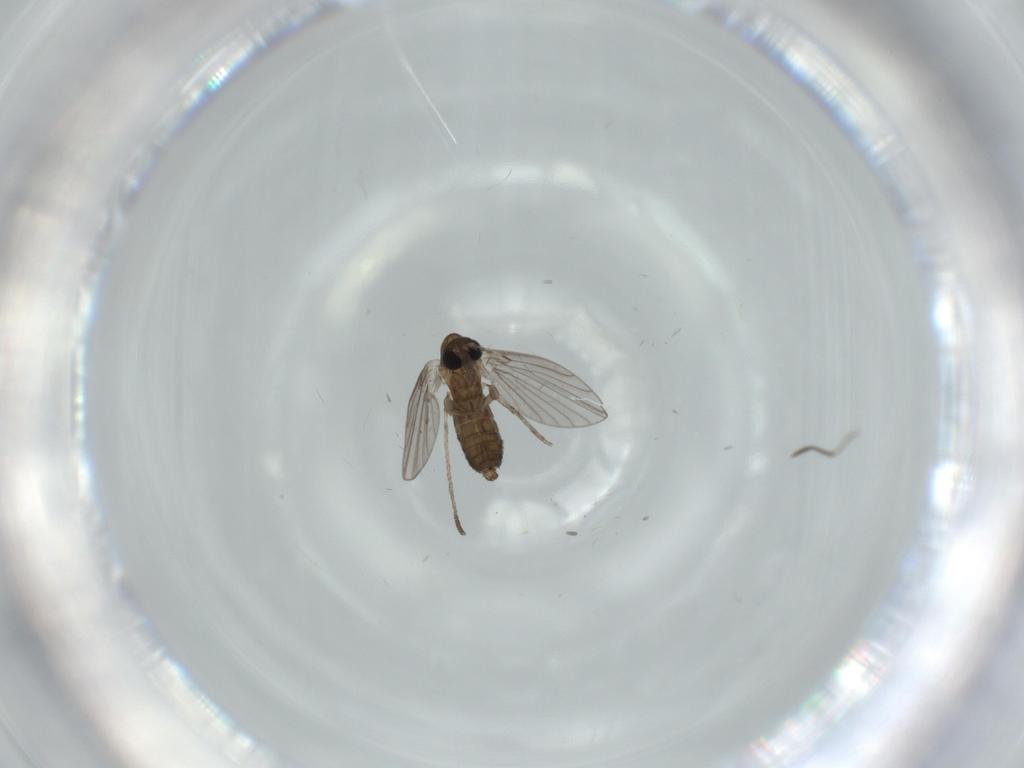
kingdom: Animalia
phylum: Arthropoda
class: Insecta
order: Diptera
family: Psychodidae
